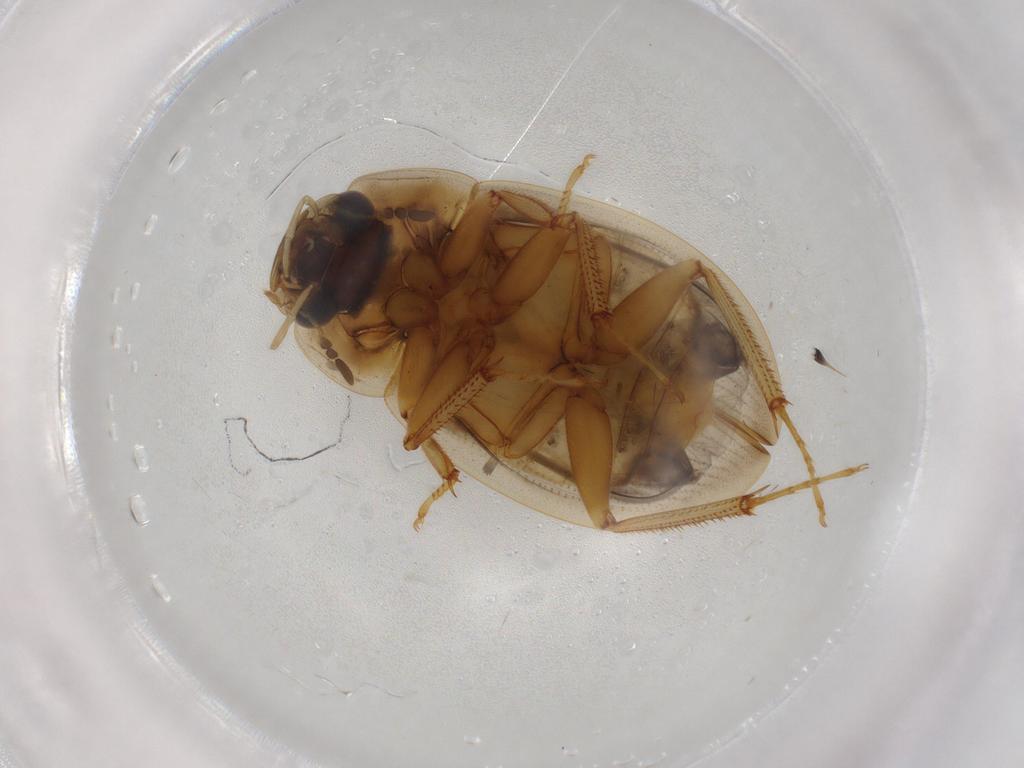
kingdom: Animalia
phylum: Arthropoda
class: Insecta
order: Coleoptera
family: Hydrophilidae
